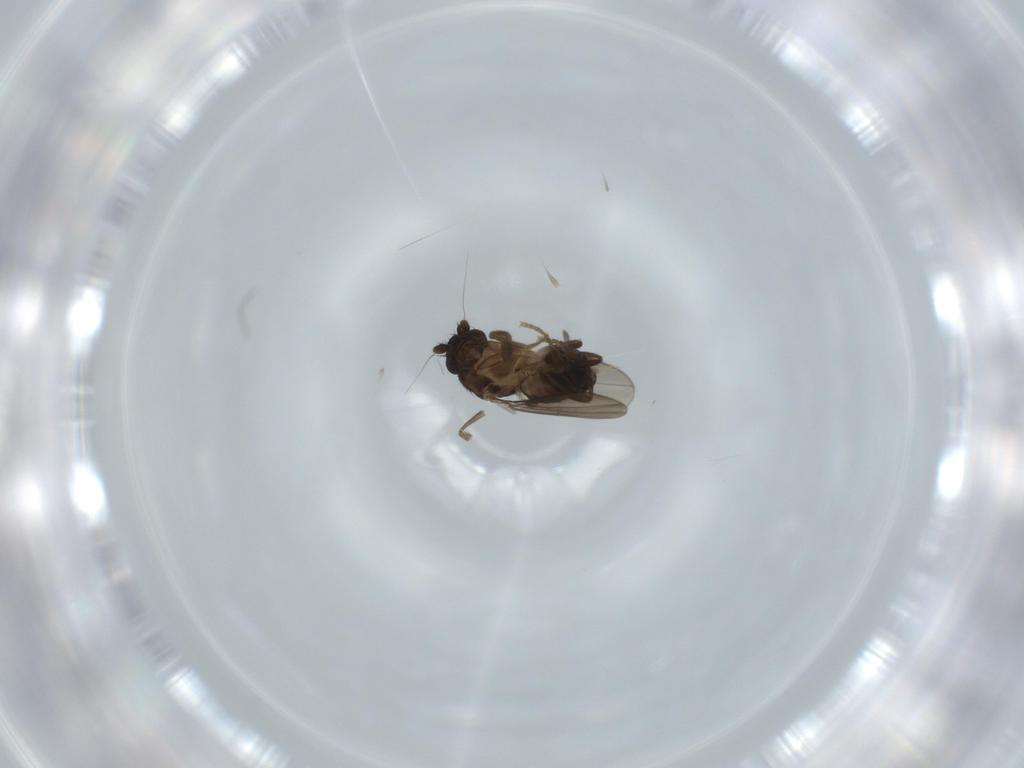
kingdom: Animalia
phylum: Arthropoda
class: Insecta
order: Diptera
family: Sphaeroceridae
